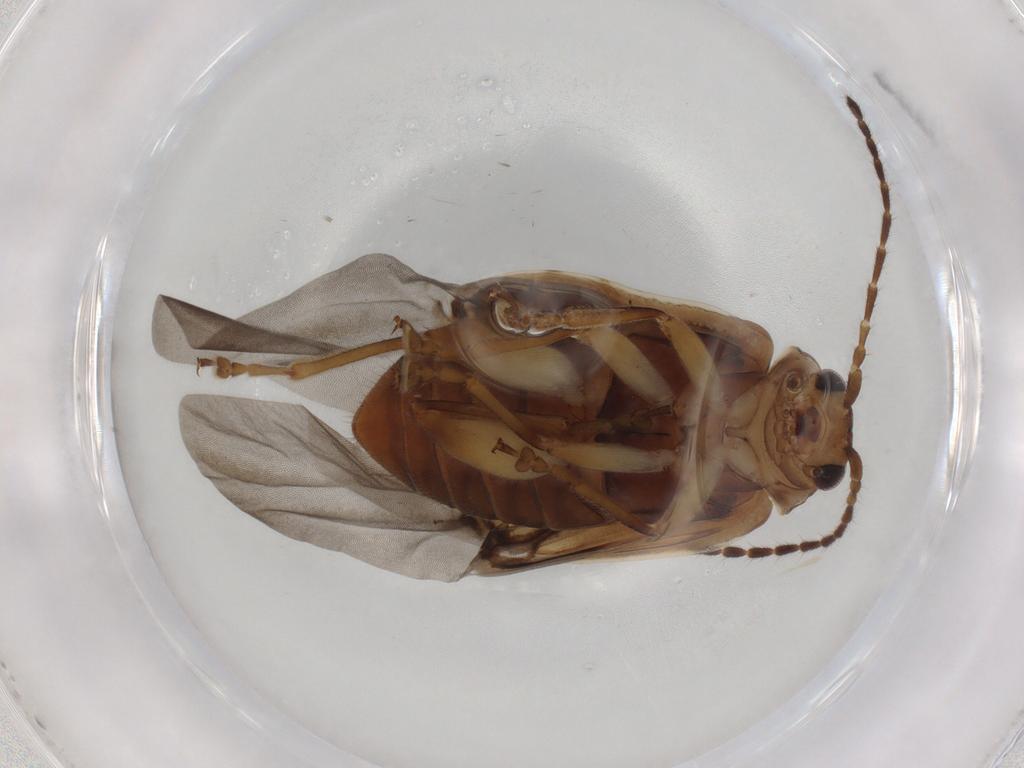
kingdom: Animalia
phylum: Arthropoda
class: Insecta
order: Coleoptera
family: Chrysomelidae
